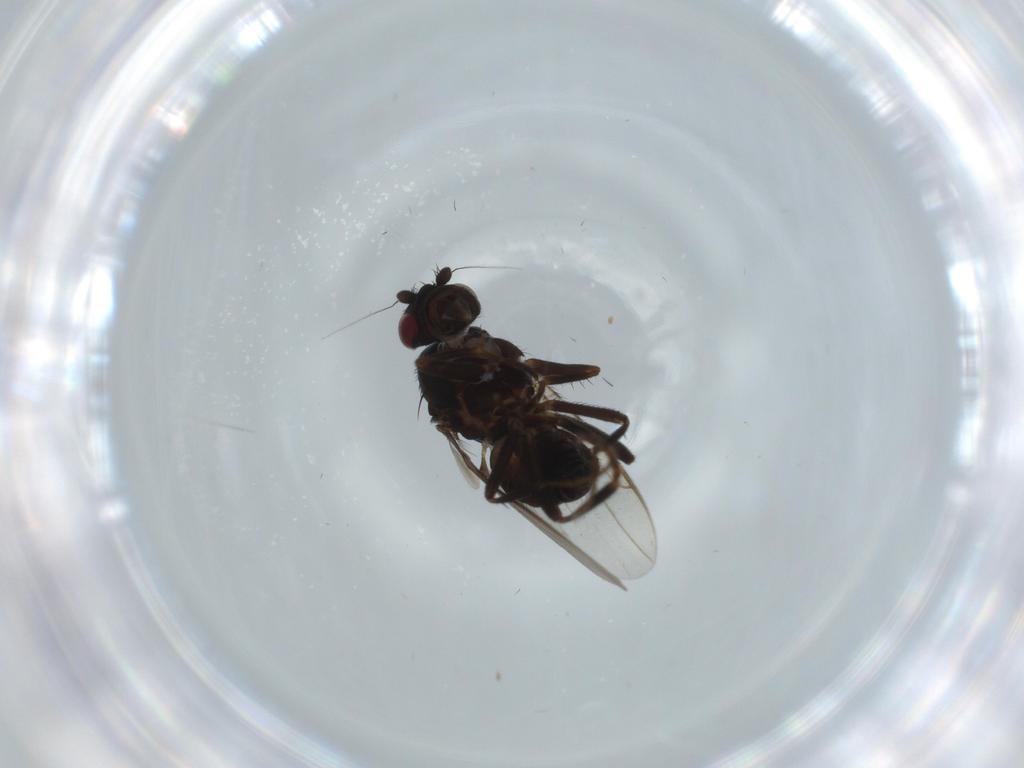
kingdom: Animalia
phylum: Arthropoda
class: Insecta
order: Diptera
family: Sphaeroceridae
